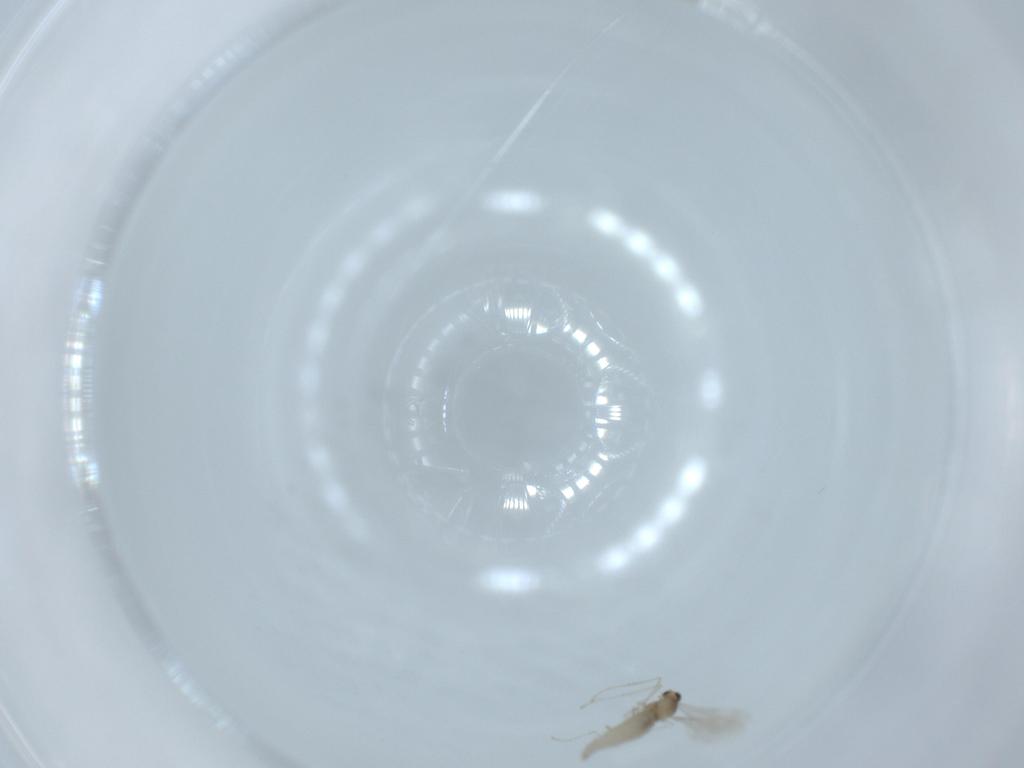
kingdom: Animalia
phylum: Arthropoda
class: Insecta
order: Diptera
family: Cecidomyiidae
